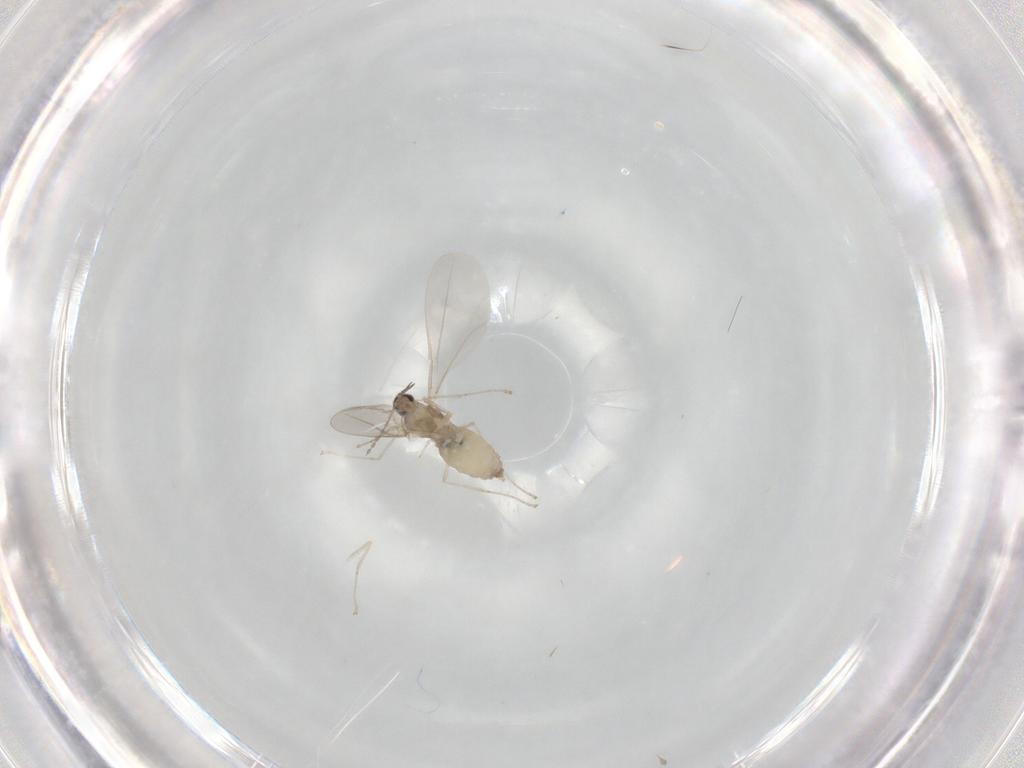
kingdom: Animalia
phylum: Arthropoda
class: Insecta
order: Diptera
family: Cecidomyiidae
